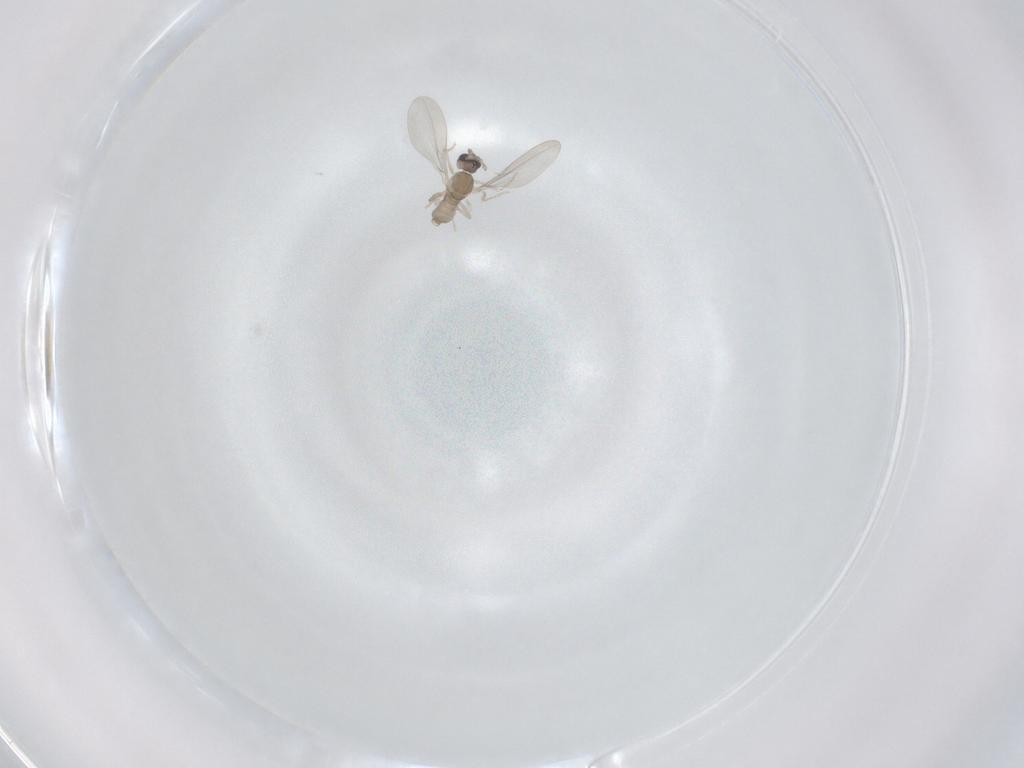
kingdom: Animalia
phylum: Arthropoda
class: Insecta
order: Diptera
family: Cecidomyiidae
